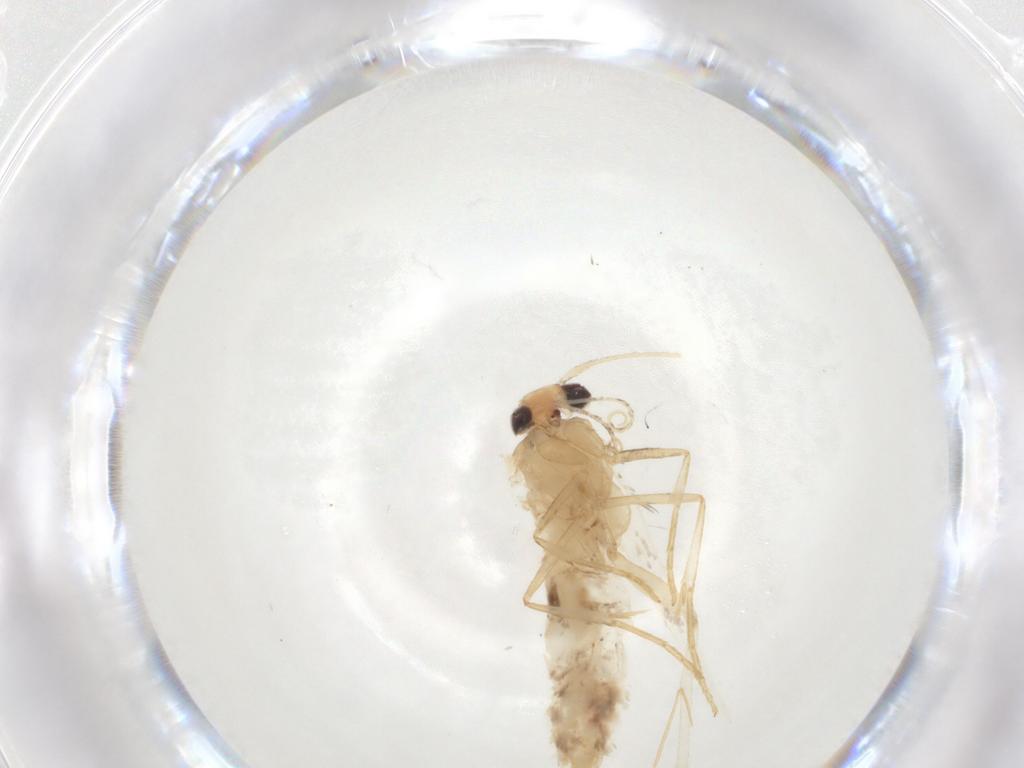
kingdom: Animalia
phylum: Arthropoda
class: Insecta
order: Lepidoptera
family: Cosmopterigidae
